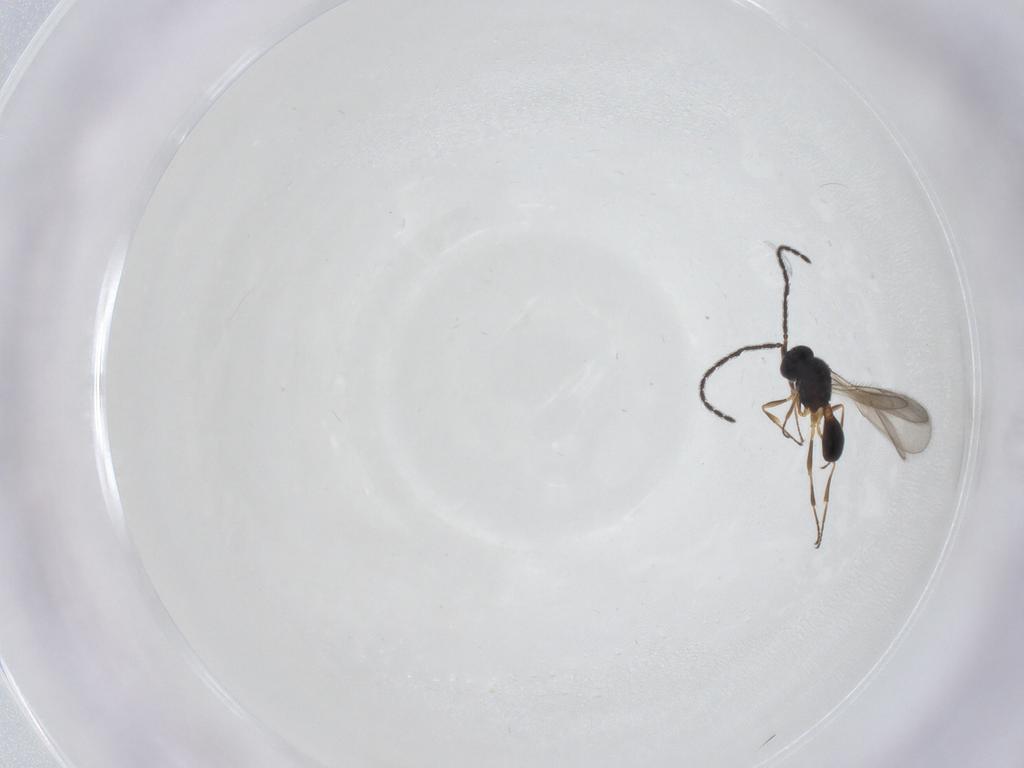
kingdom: Animalia
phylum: Arthropoda
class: Insecta
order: Hymenoptera
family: Scelionidae
